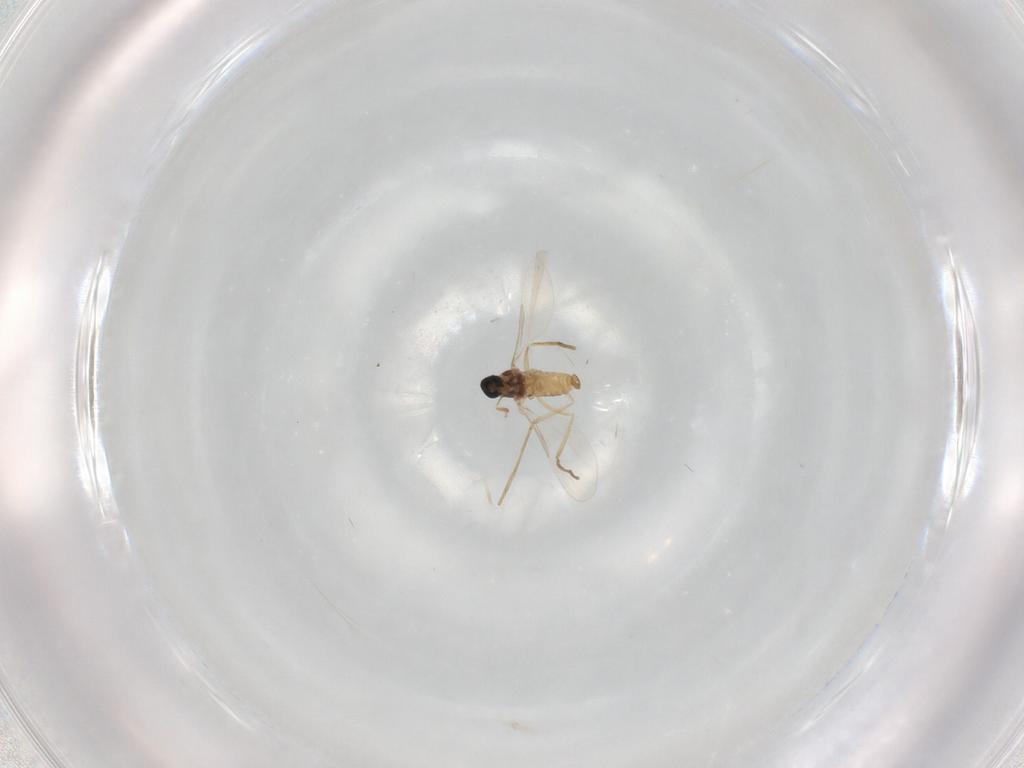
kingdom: Animalia
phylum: Arthropoda
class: Insecta
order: Diptera
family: Cecidomyiidae
